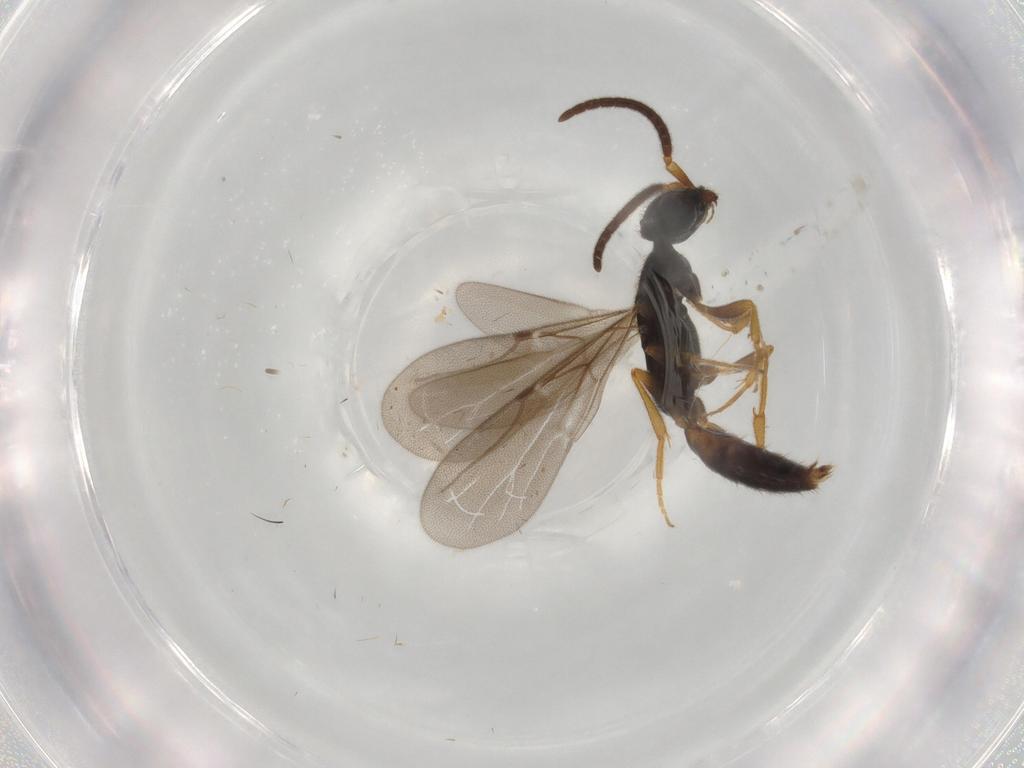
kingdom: Animalia
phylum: Arthropoda
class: Insecta
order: Hymenoptera
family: Bethylidae
